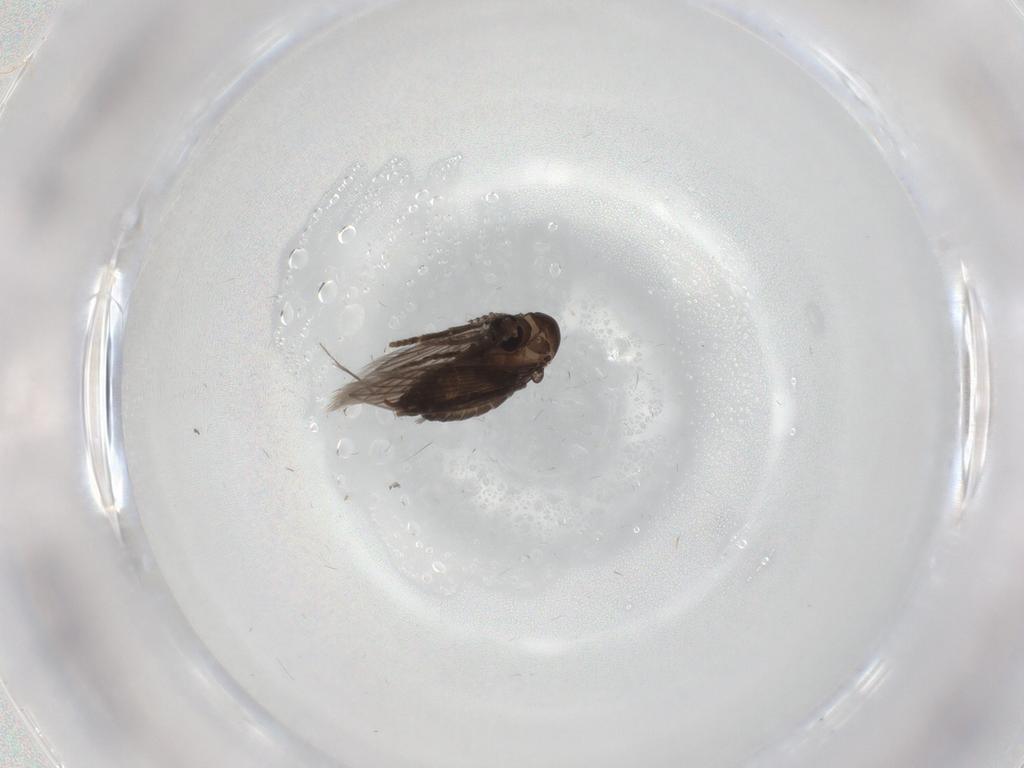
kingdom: Animalia
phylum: Arthropoda
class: Insecta
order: Diptera
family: Psychodidae
